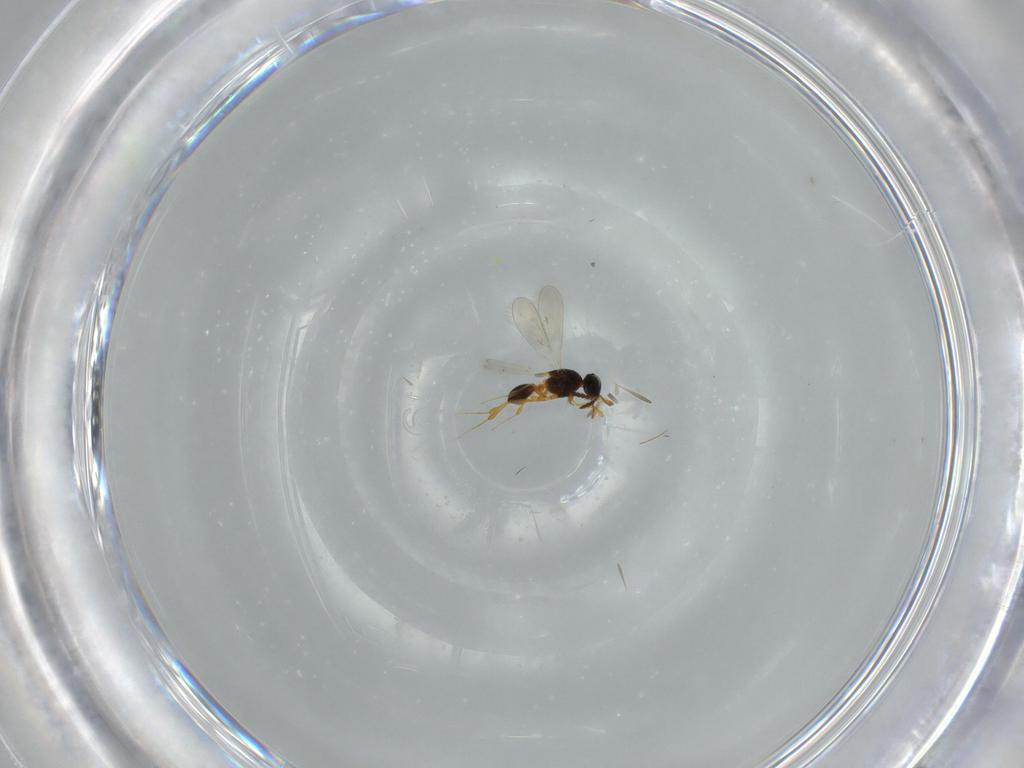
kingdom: Animalia
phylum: Arthropoda
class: Insecta
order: Hymenoptera
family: Platygastridae
